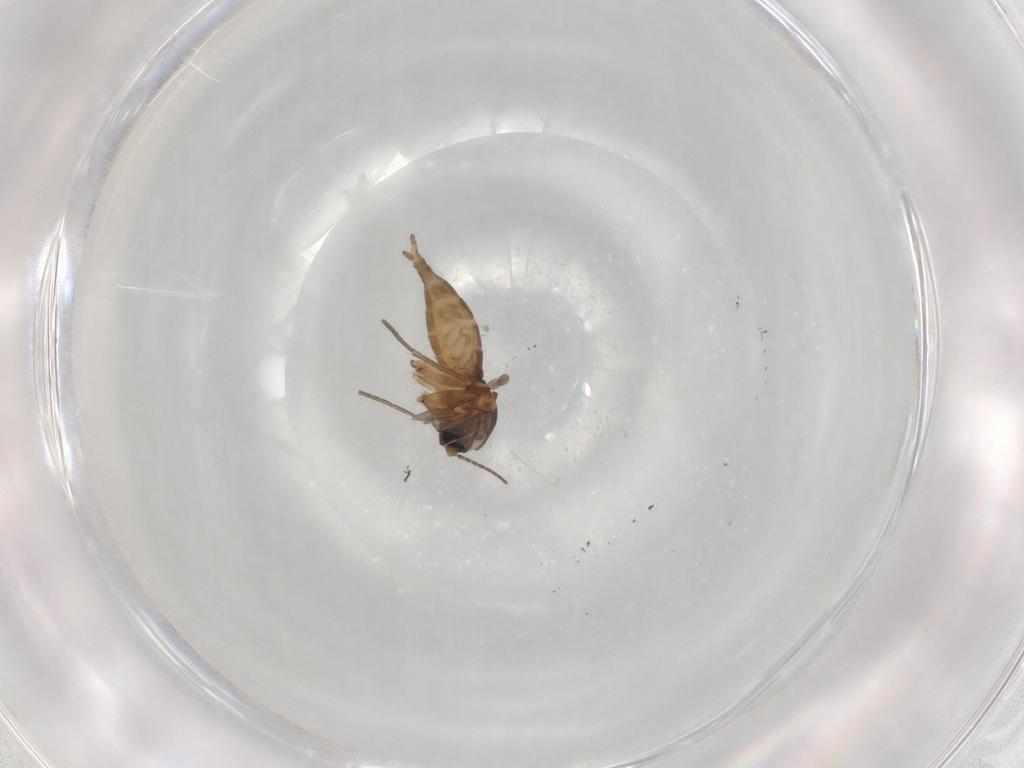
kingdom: Animalia
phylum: Arthropoda
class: Insecta
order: Diptera
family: Sciaridae
